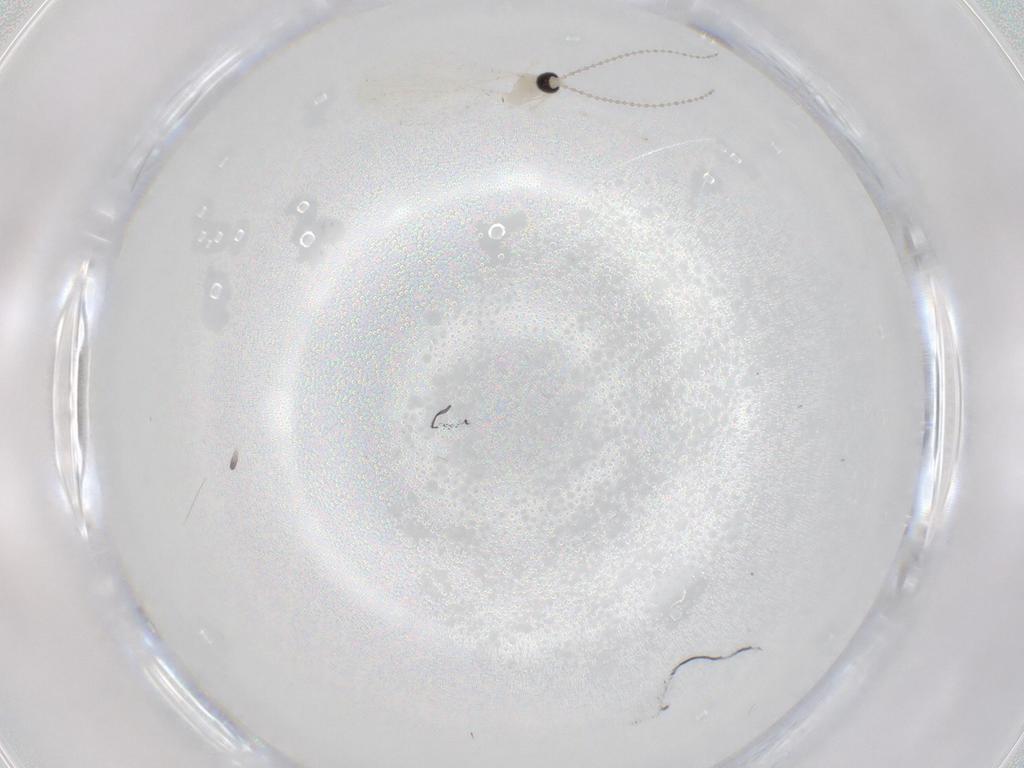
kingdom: Animalia
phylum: Arthropoda
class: Insecta
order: Diptera
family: Cecidomyiidae
